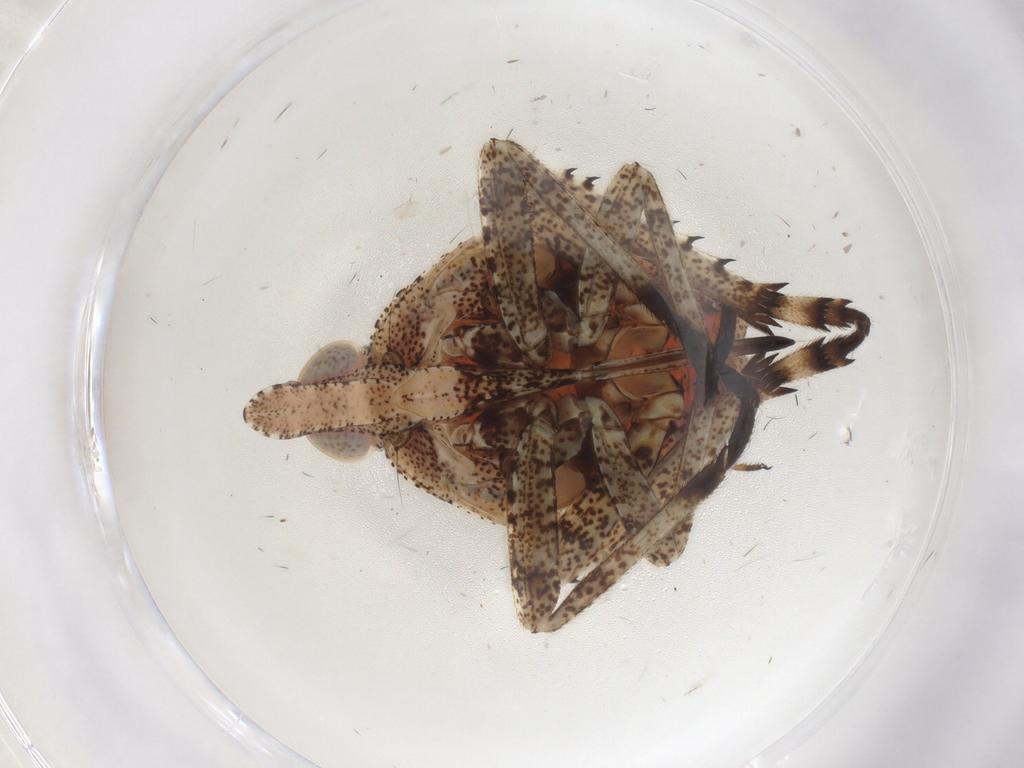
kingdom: Animalia
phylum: Arthropoda
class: Insecta
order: Hemiptera
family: Dictyopharidae
